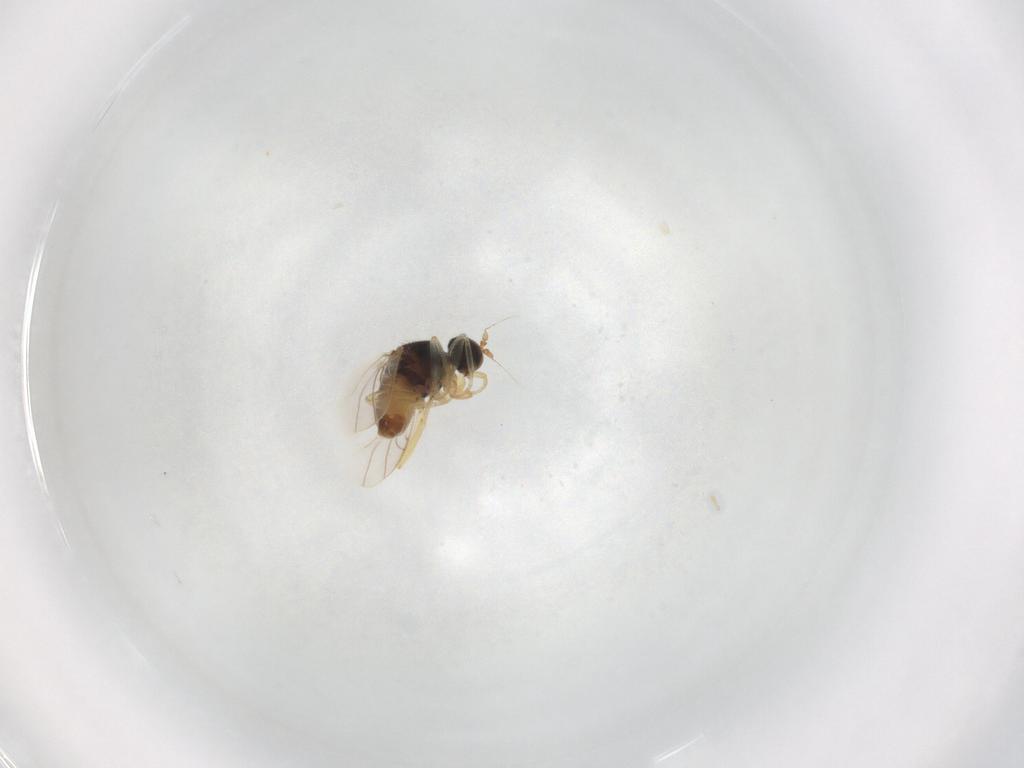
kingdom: Animalia
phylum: Arthropoda
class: Insecta
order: Diptera
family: Hybotidae
